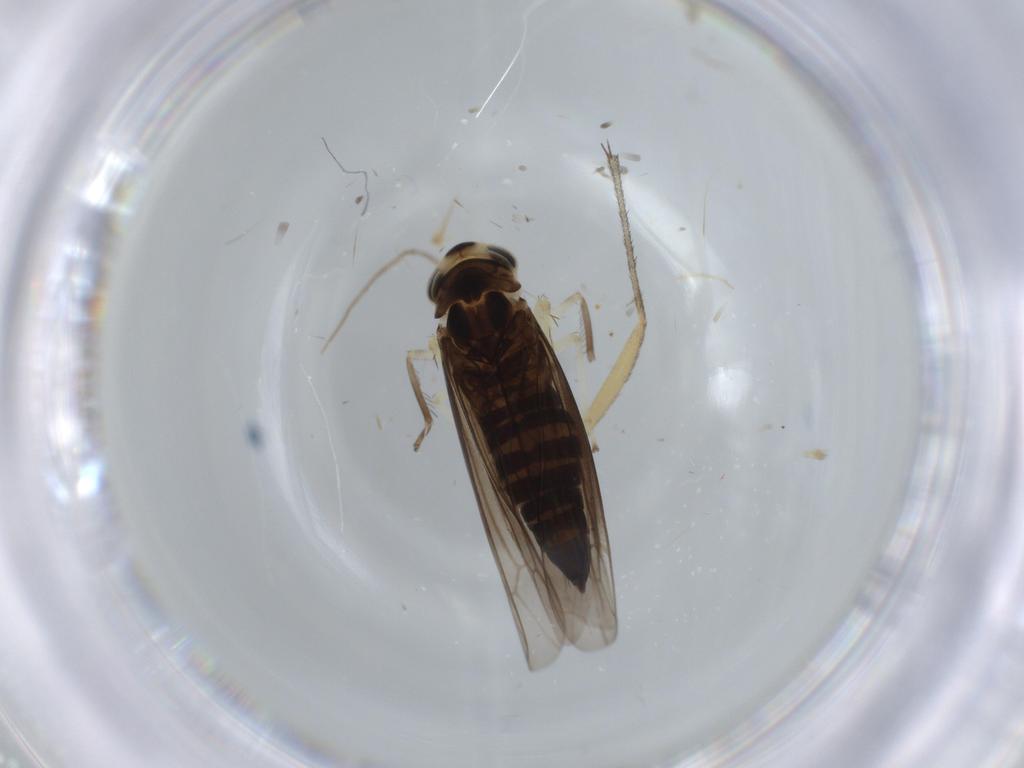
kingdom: Animalia
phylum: Arthropoda
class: Insecta
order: Hemiptera
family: Cicadellidae
